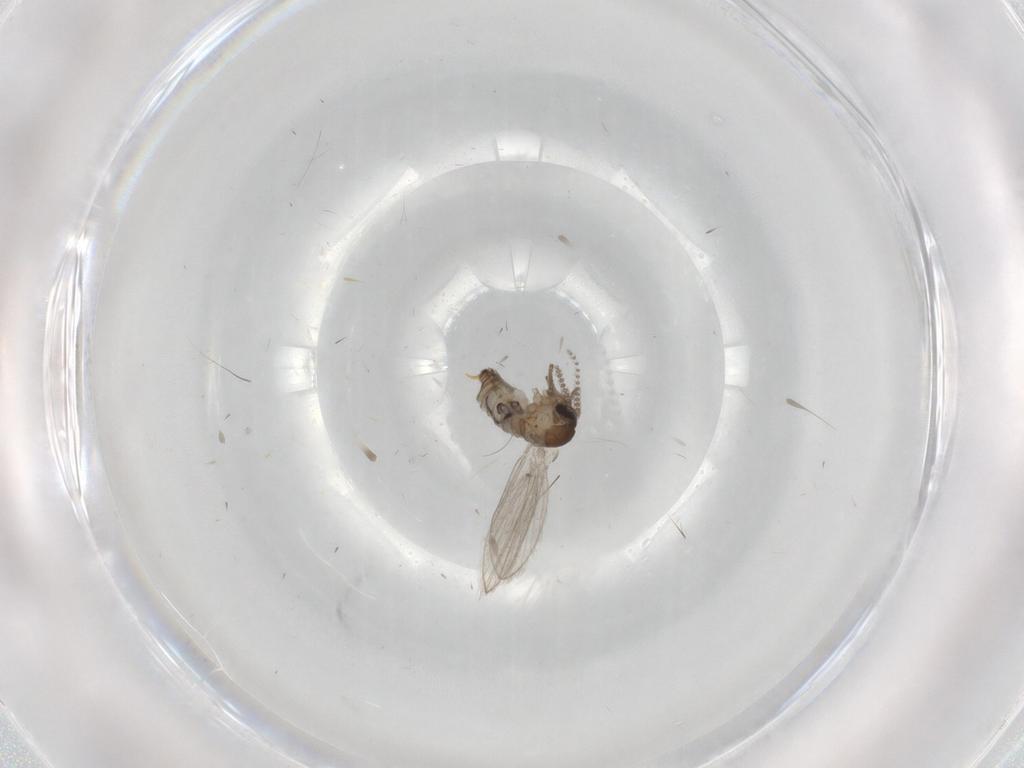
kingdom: Animalia
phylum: Arthropoda
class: Insecta
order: Diptera
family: Psychodidae
